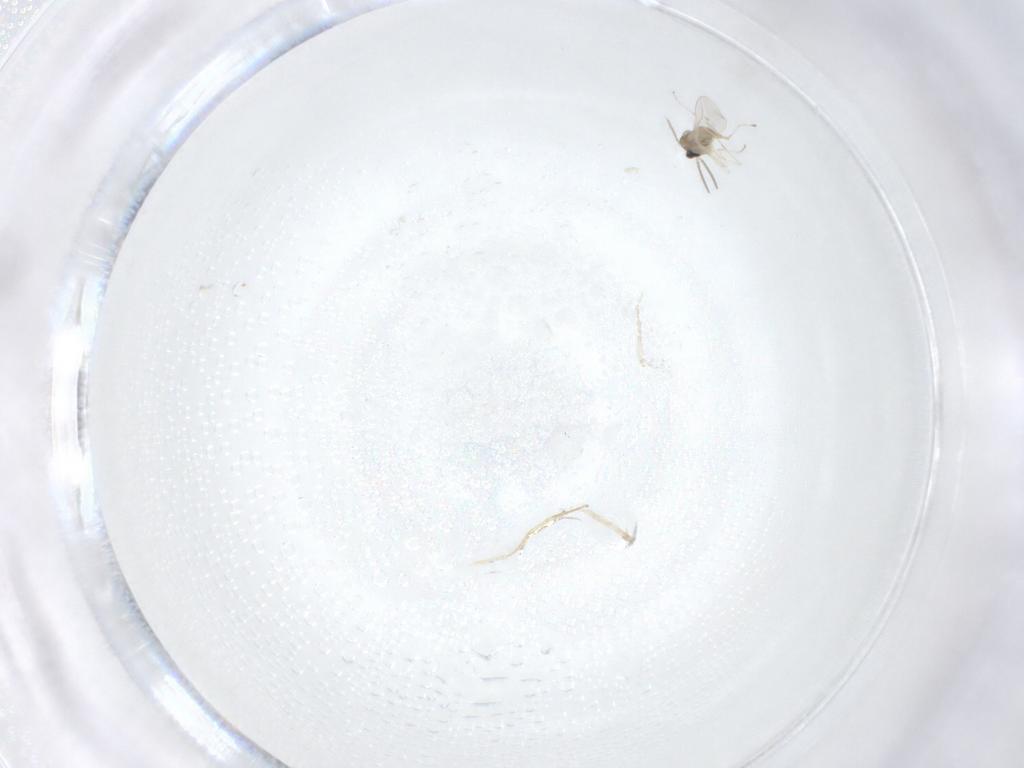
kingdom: Animalia
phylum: Arthropoda
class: Insecta
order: Diptera
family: Cecidomyiidae
